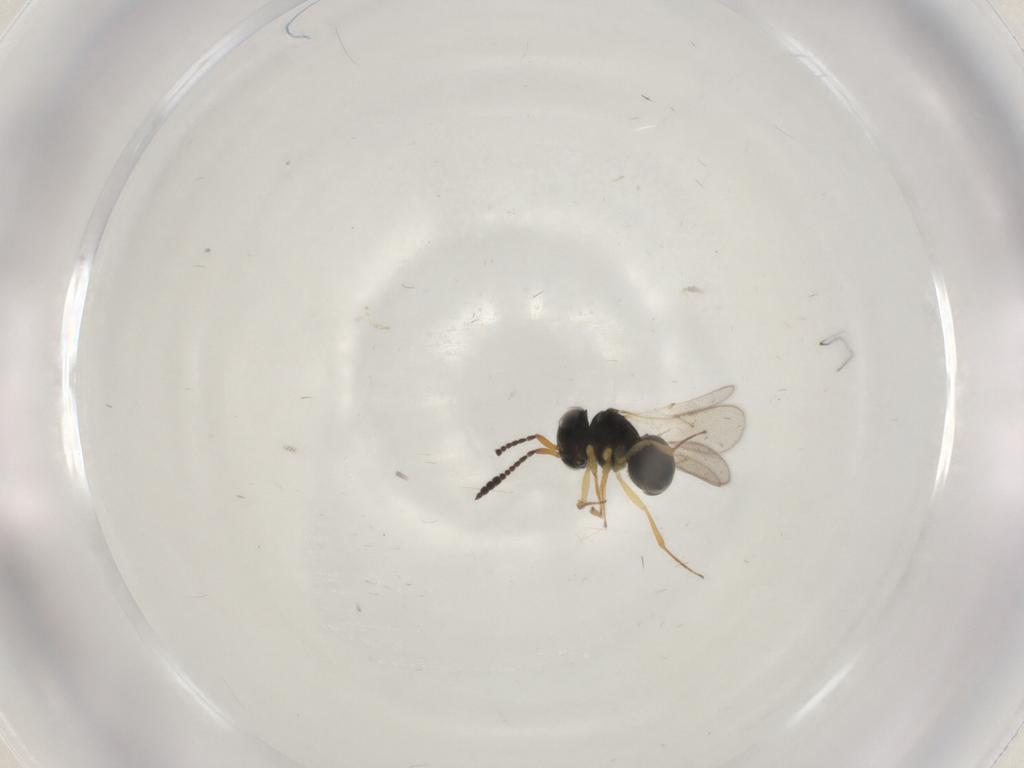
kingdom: Animalia
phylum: Arthropoda
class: Insecta
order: Hymenoptera
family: Scelionidae
